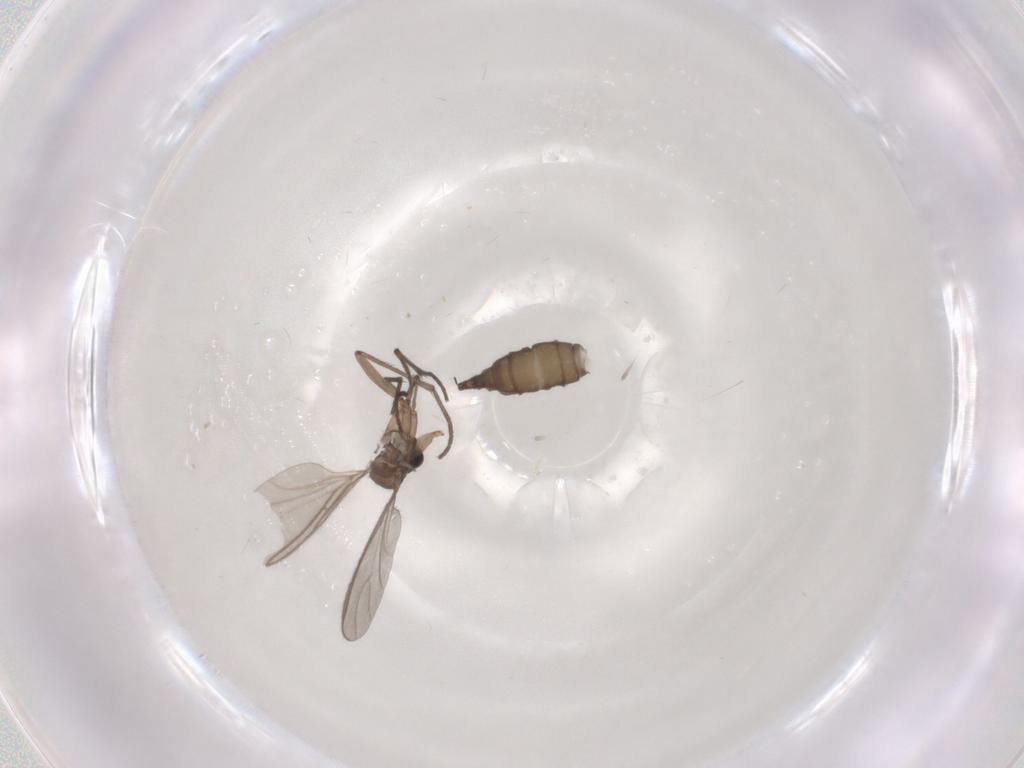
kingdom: Animalia
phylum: Arthropoda
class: Insecta
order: Diptera
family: Sciaridae
